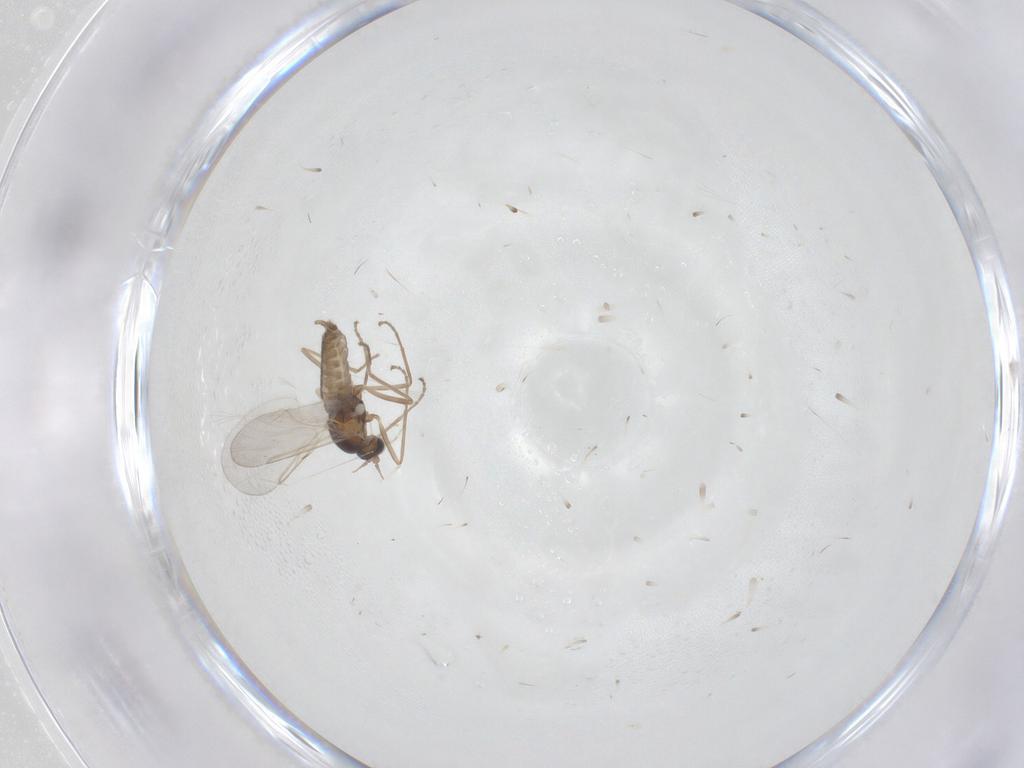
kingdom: Animalia
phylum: Arthropoda
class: Insecta
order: Diptera
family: Cecidomyiidae
